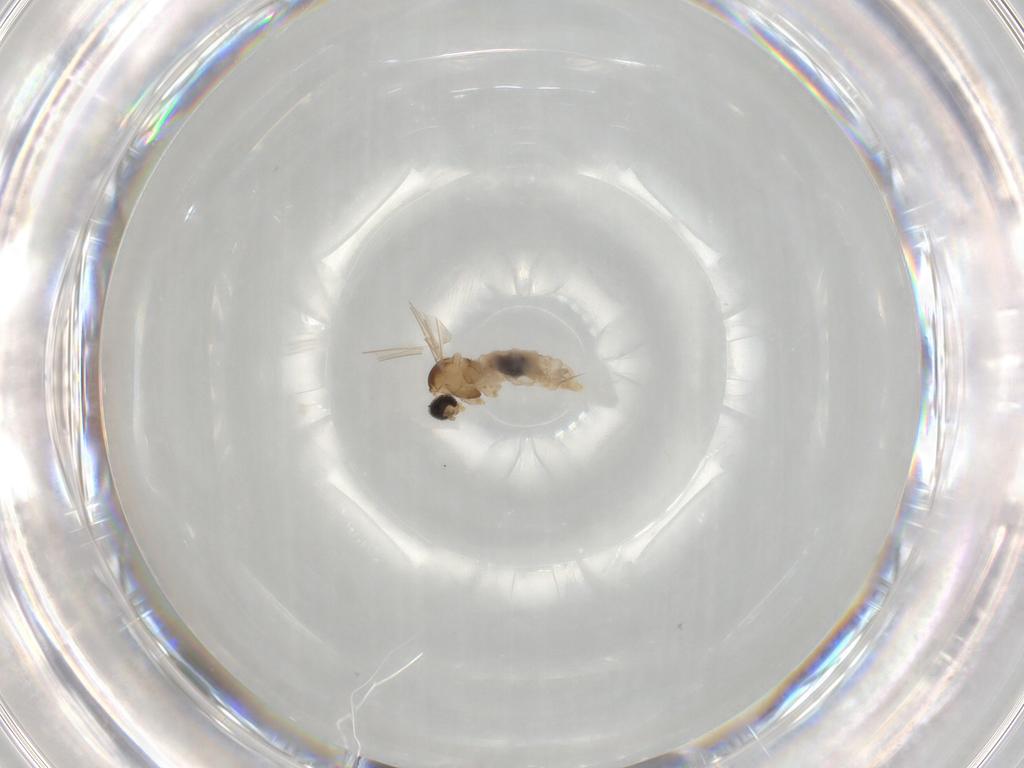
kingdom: Animalia
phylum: Arthropoda
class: Insecta
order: Diptera
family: Cecidomyiidae
